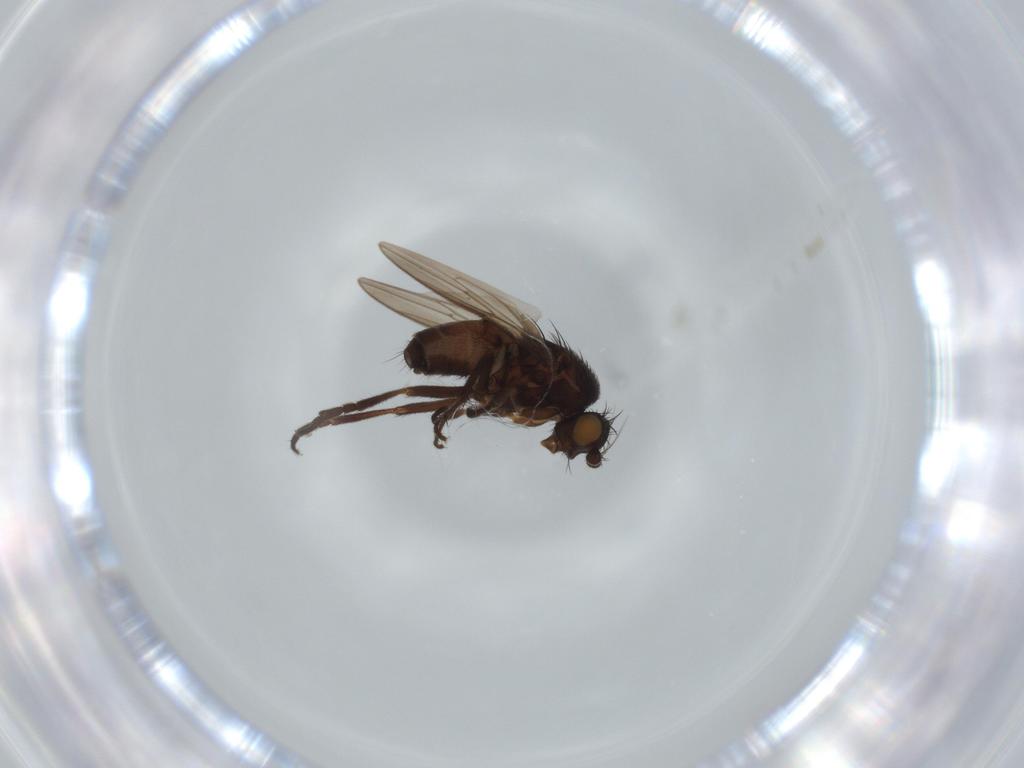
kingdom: Animalia
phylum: Arthropoda
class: Insecta
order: Diptera
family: Sphaeroceridae
